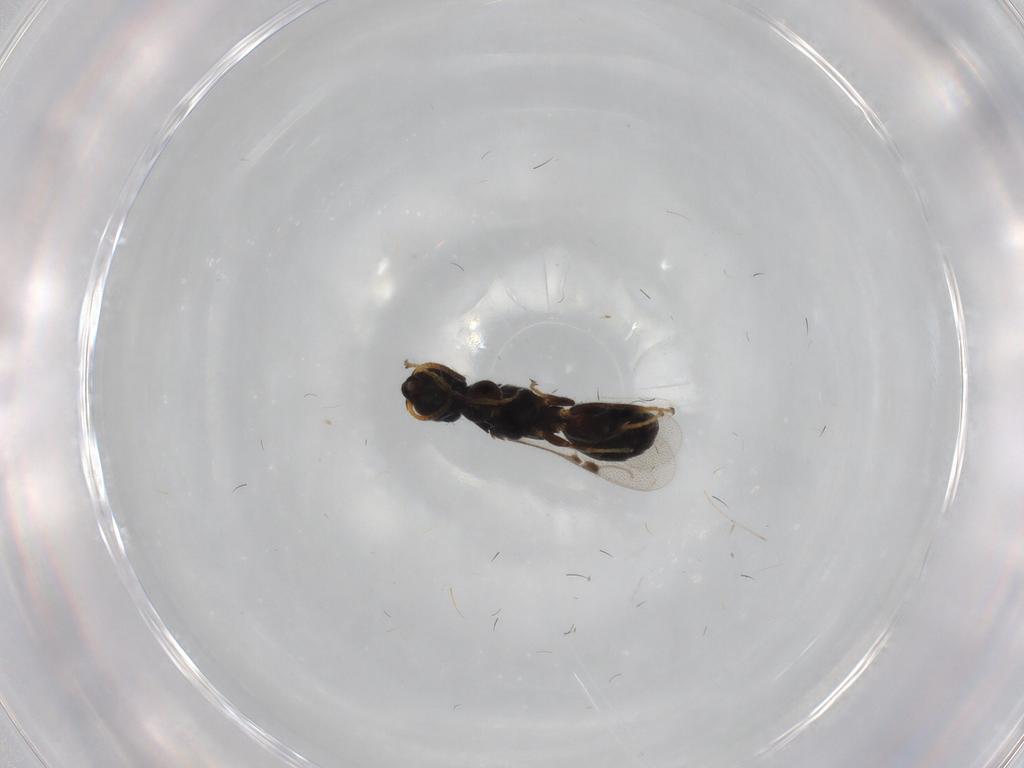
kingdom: Animalia
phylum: Arthropoda
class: Insecta
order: Hymenoptera
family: Bethylidae
